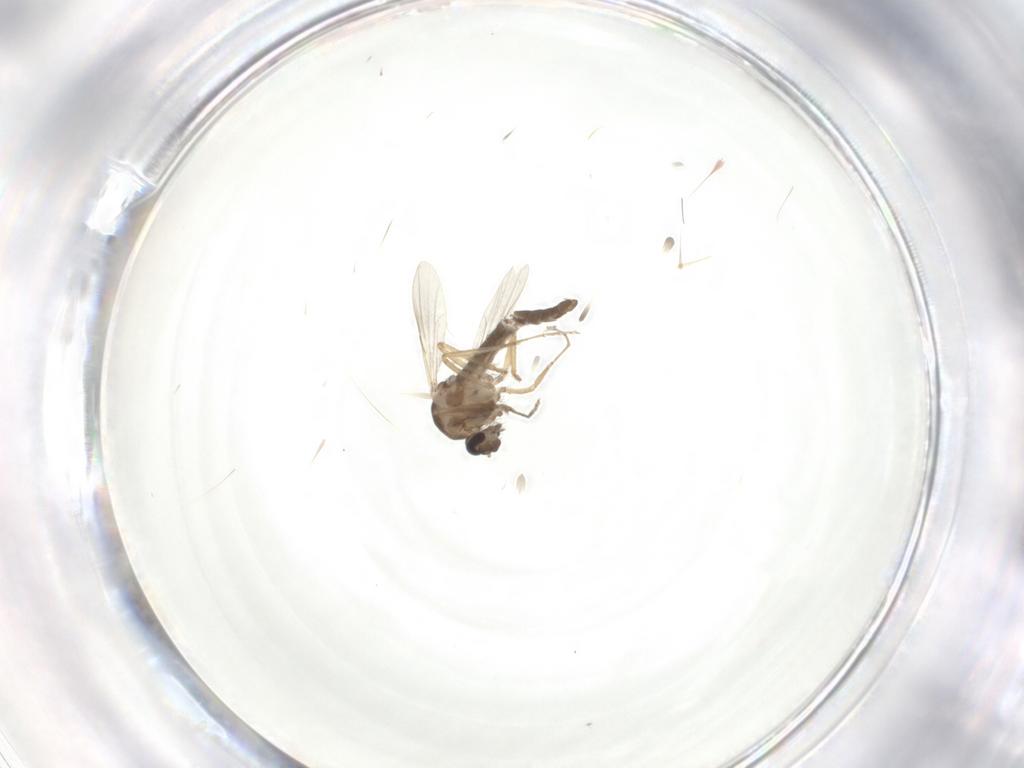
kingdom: Animalia
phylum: Arthropoda
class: Insecta
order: Diptera
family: Ceratopogonidae
